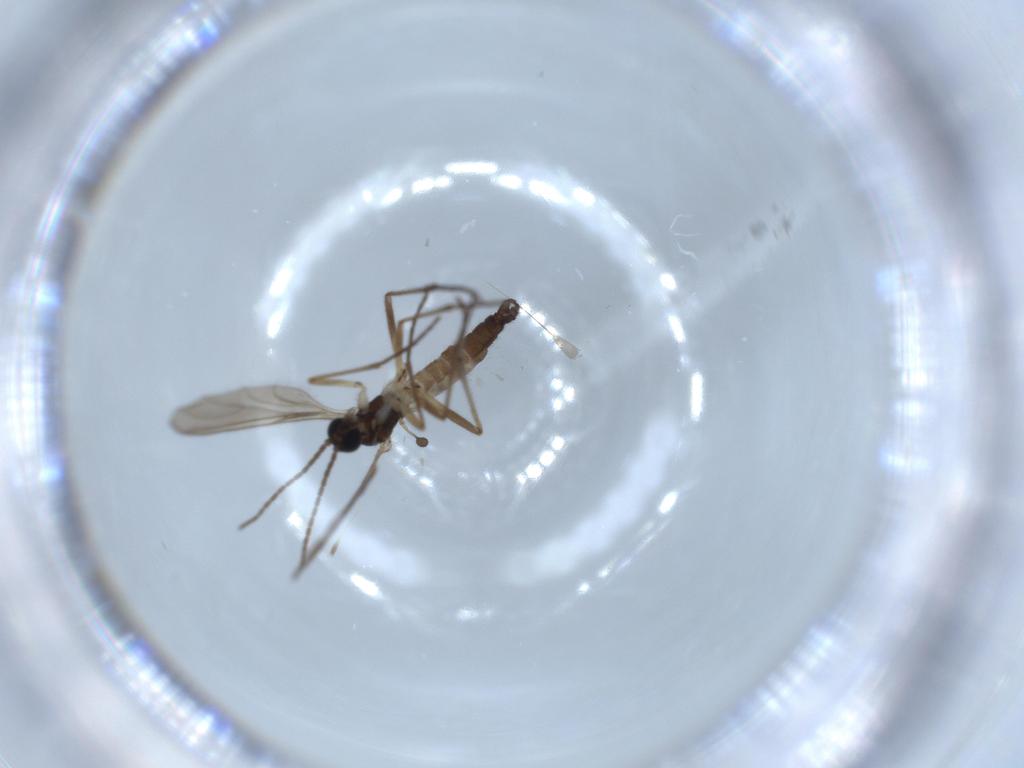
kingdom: Animalia
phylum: Arthropoda
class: Insecta
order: Diptera
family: Sciaridae
